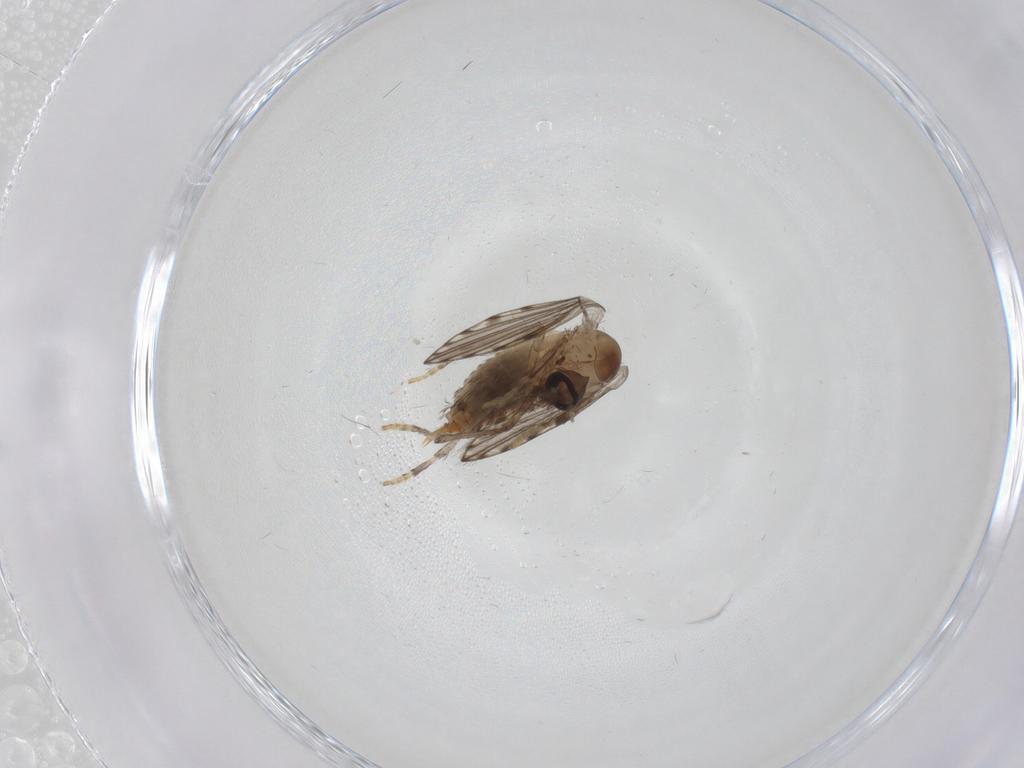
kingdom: Animalia
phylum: Arthropoda
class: Insecta
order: Diptera
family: Psychodidae
